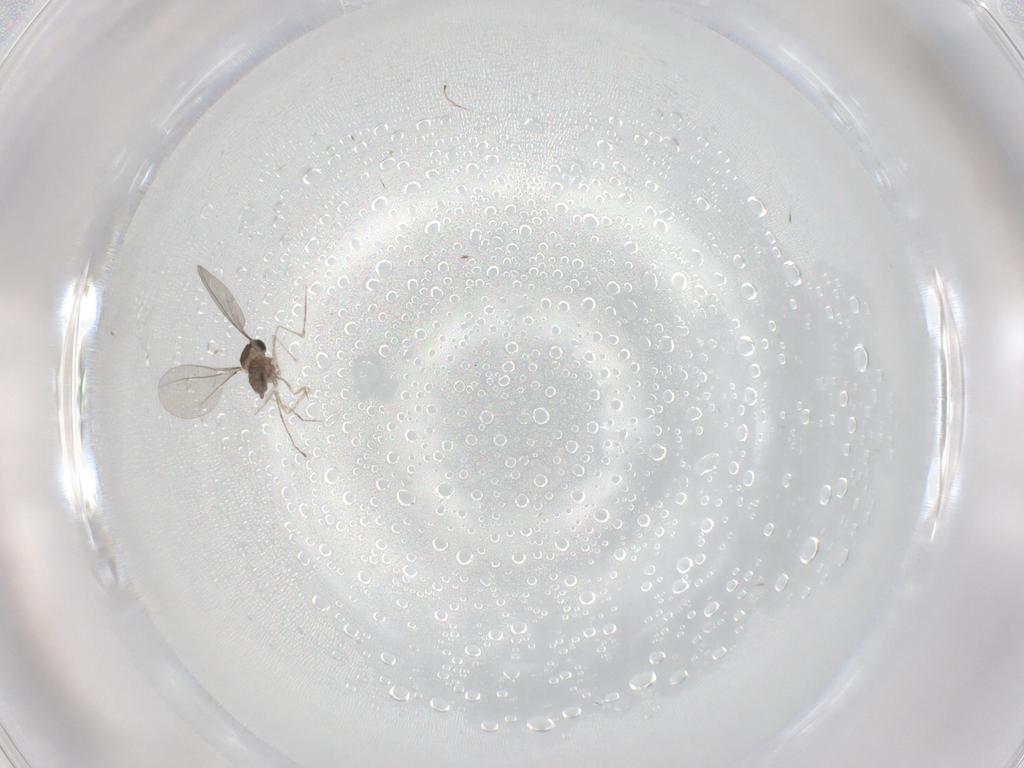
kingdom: Animalia
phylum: Arthropoda
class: Insecta
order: Diptera
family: Cecidomyiidae
